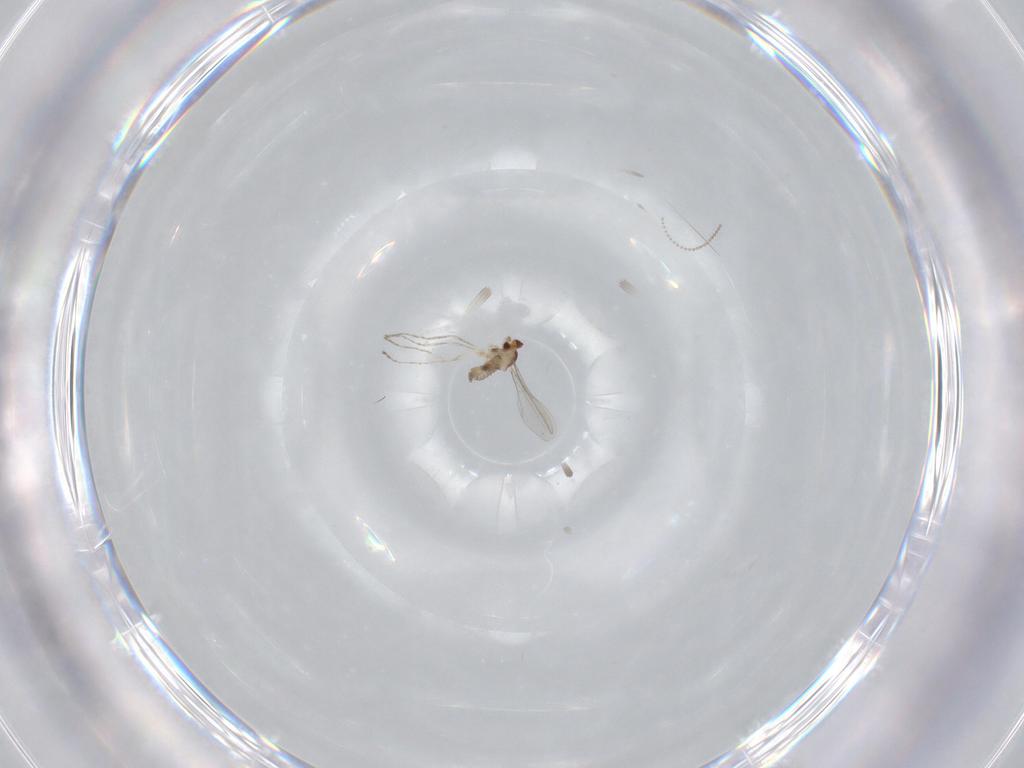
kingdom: Animalia
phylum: Arthropoda
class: Insecta
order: Diptera
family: Cecidomyiidae
